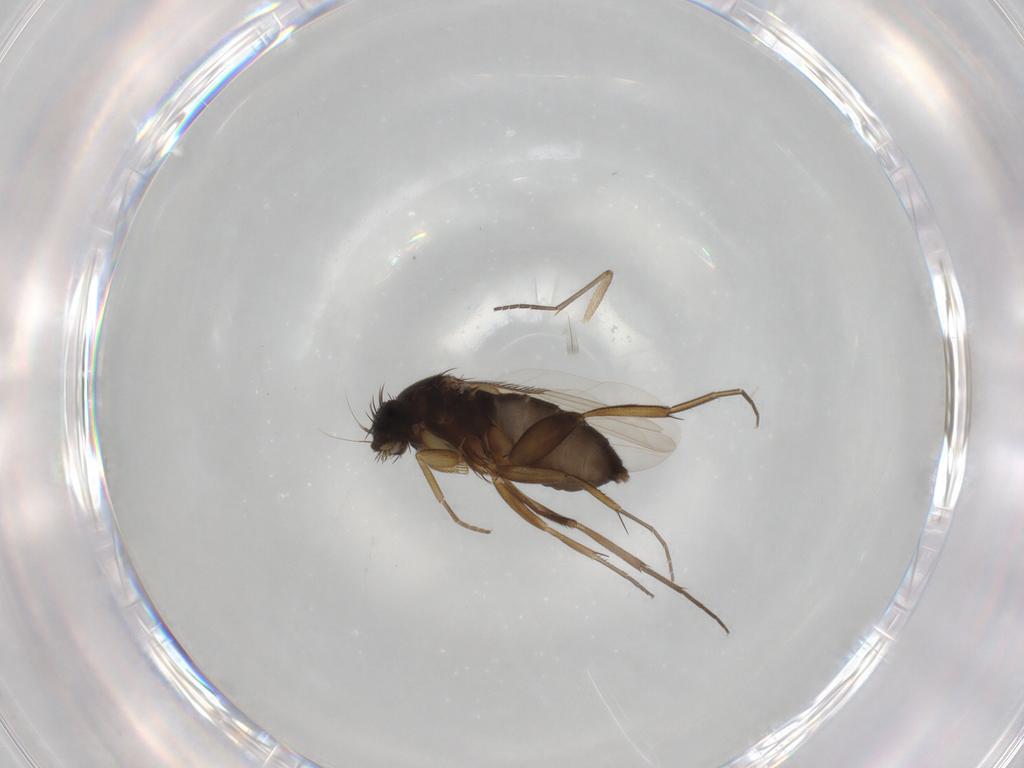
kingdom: Animalia
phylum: Arthropoda
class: Insecta
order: Diptera
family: Phoridae
